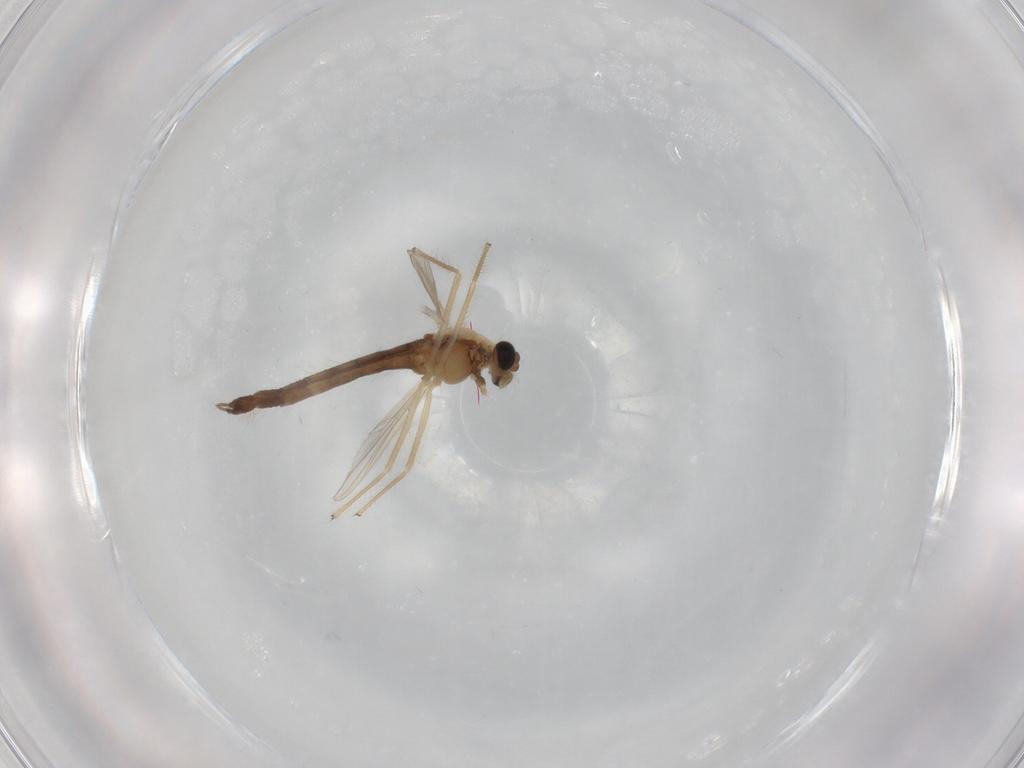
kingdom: Animalia
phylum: Arthropoda
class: Insecta
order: Diptera
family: Chironomidae
